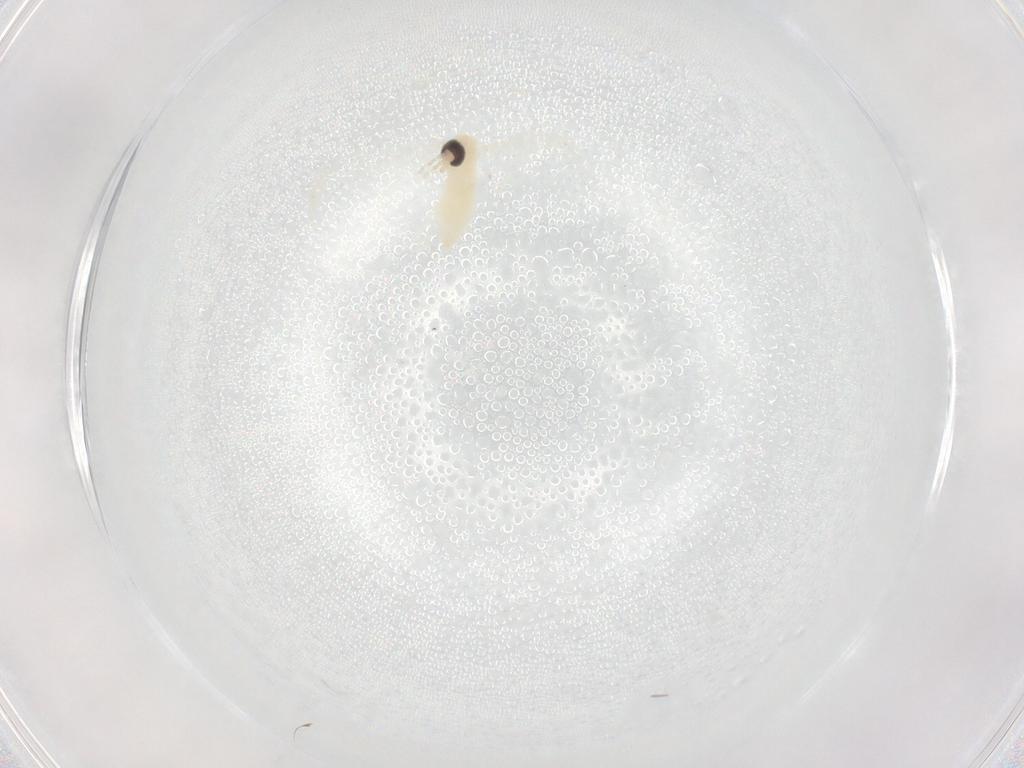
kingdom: Animalia
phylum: Arthropoda
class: Insecta
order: Diptera
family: Cecidomyiidae
